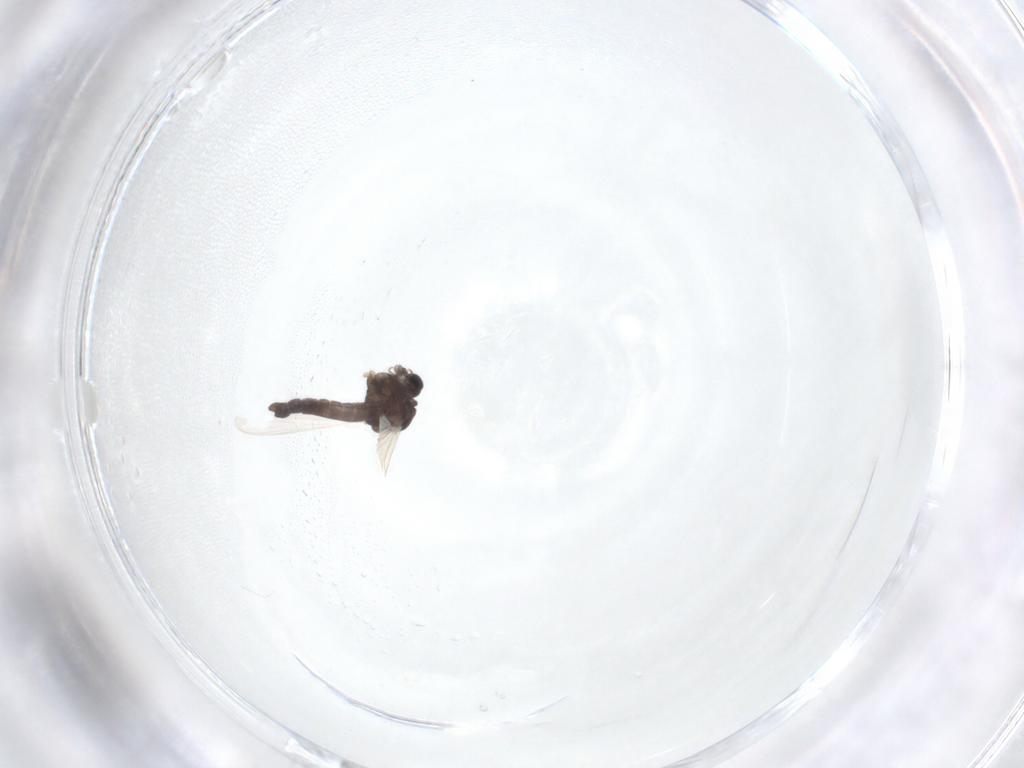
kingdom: Animalia
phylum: Arthropoda
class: Insecta
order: Diptera
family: Chironomidae
